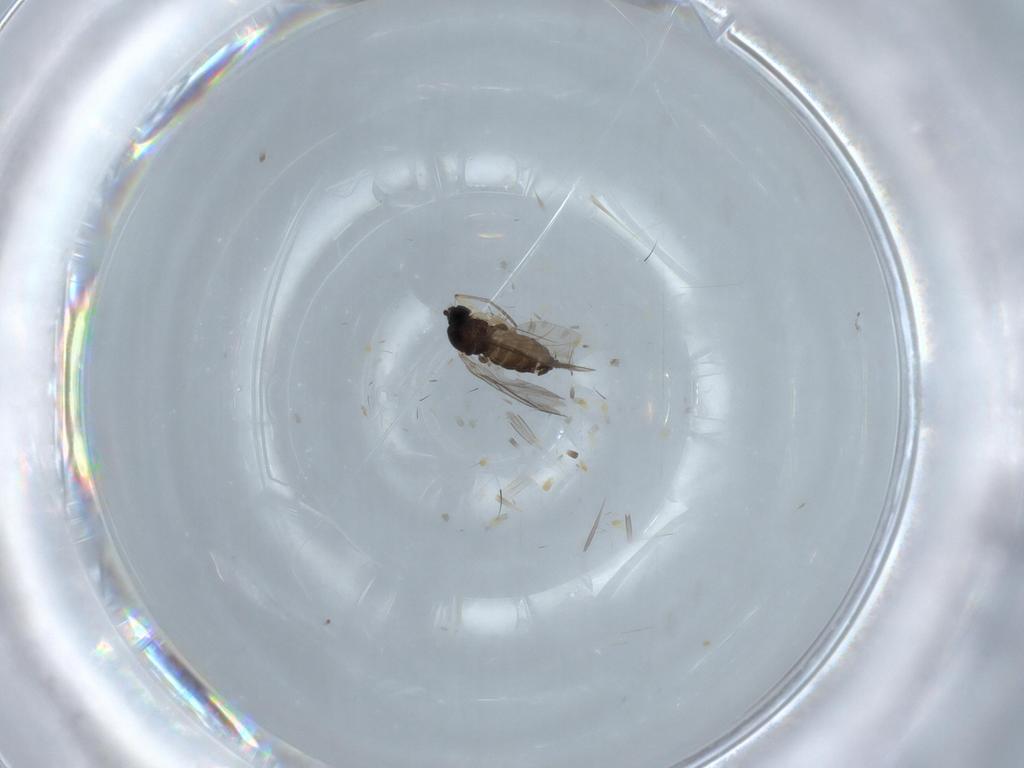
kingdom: Animalia
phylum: Arthropoda
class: Insecta
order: Diptera
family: Sciaridae
